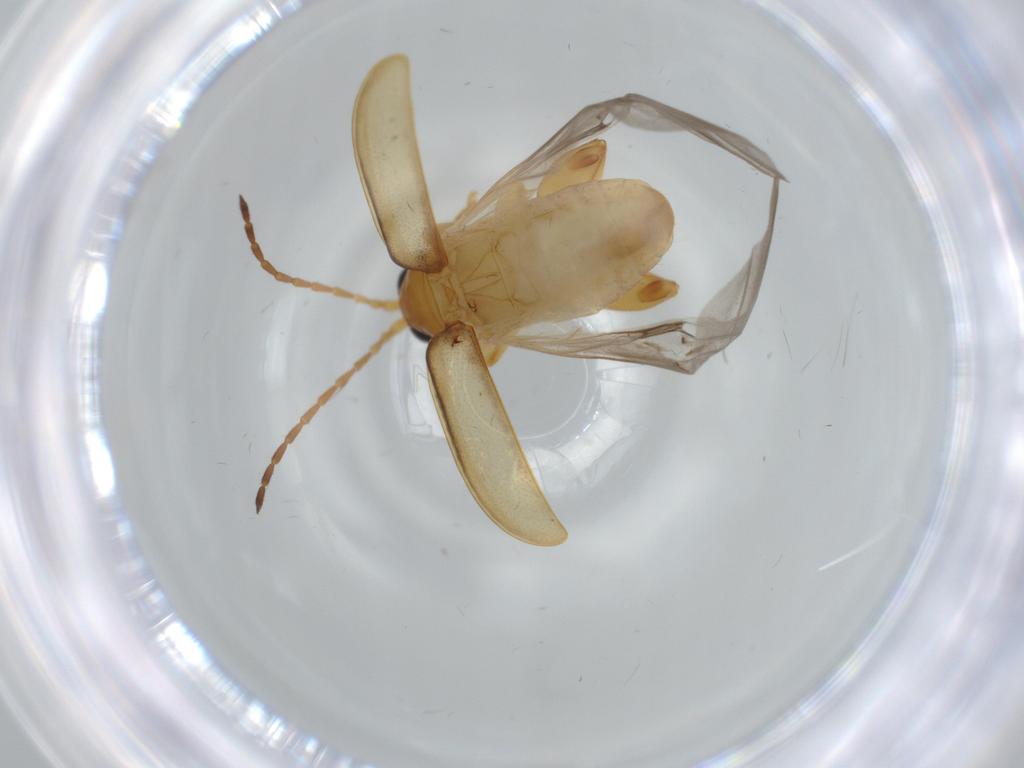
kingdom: Animalia
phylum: Arthropoda
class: Insecta
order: Coleoptera
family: Chrysomelidae
